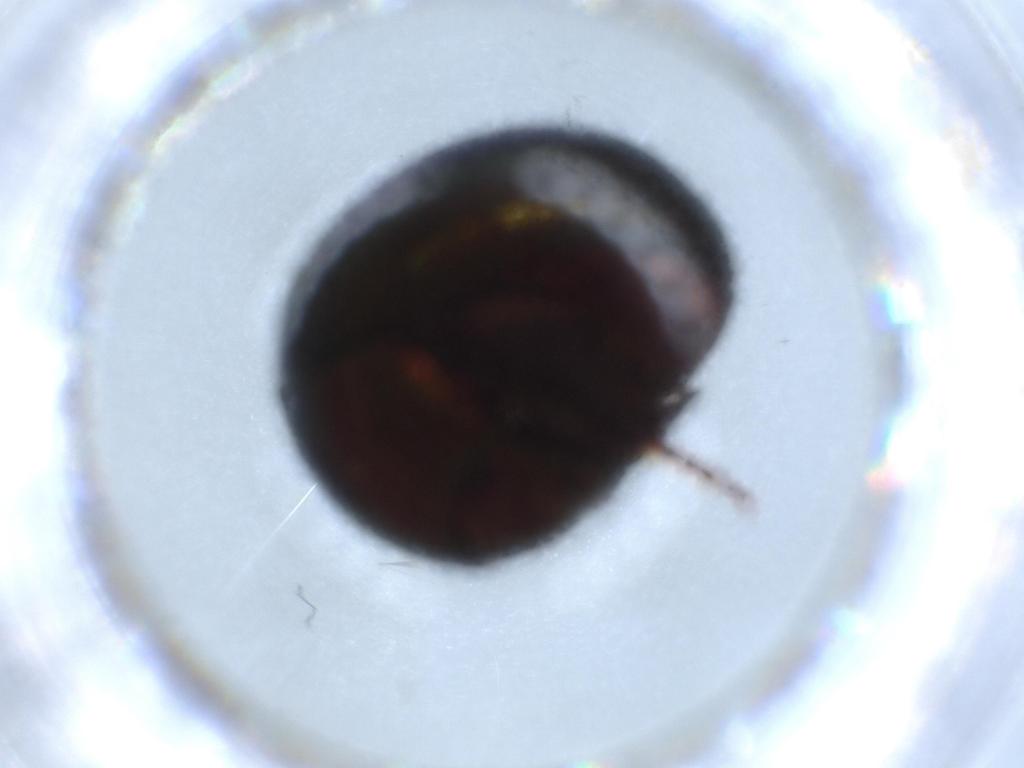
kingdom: Animalia
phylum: Arthropoda
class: Insecta
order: Coleoptera
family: Hybosoridae
